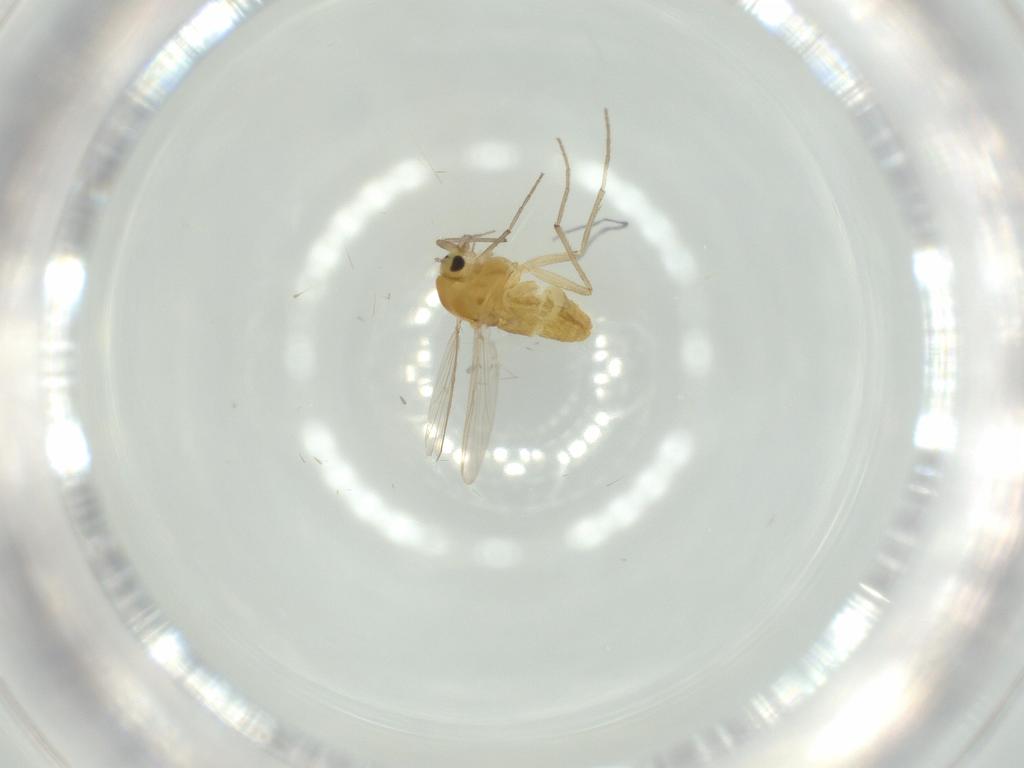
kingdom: Animalia
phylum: Arthropoda
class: Insecta
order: Diptera
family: Chironomidae
